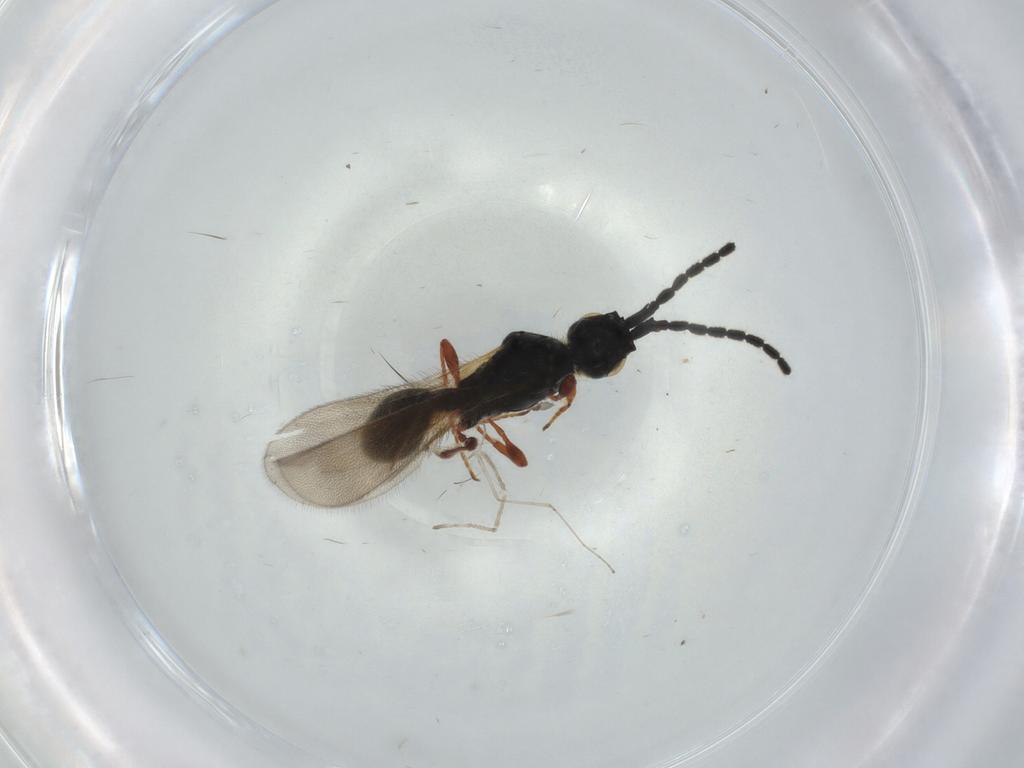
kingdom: Animalia
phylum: Arthropoda
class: Insecta
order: Hymenoptera
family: Diapriidae
